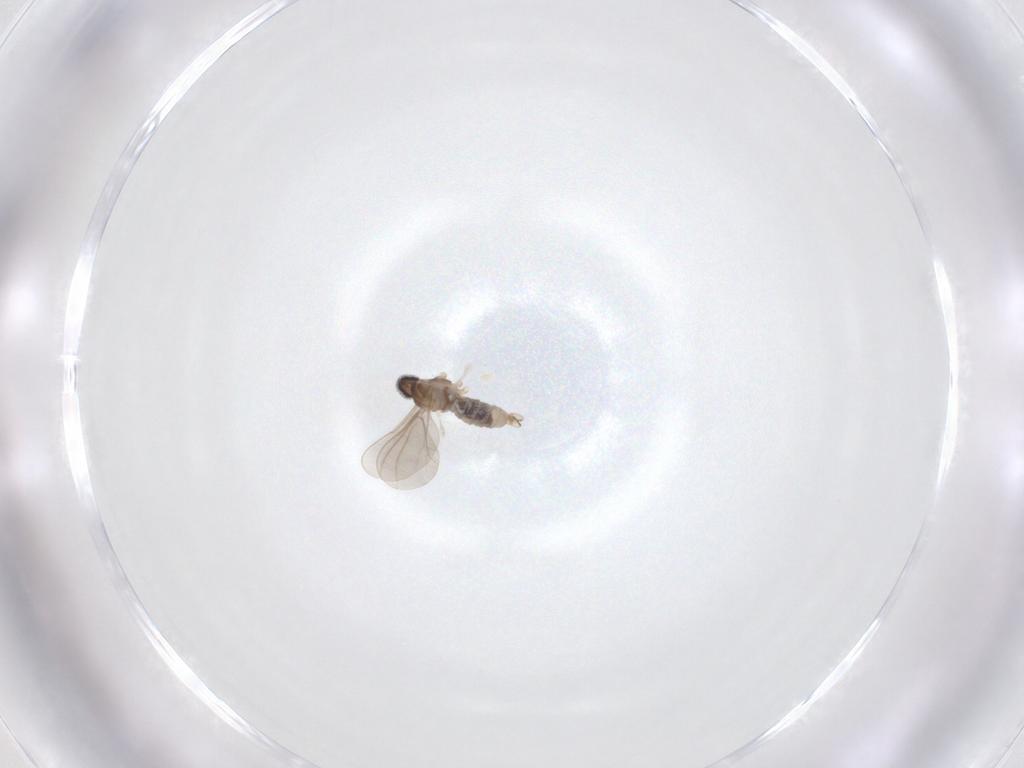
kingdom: Animalia
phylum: Arthropoda
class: Insecta
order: Diptera
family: Cecidomyiidae
